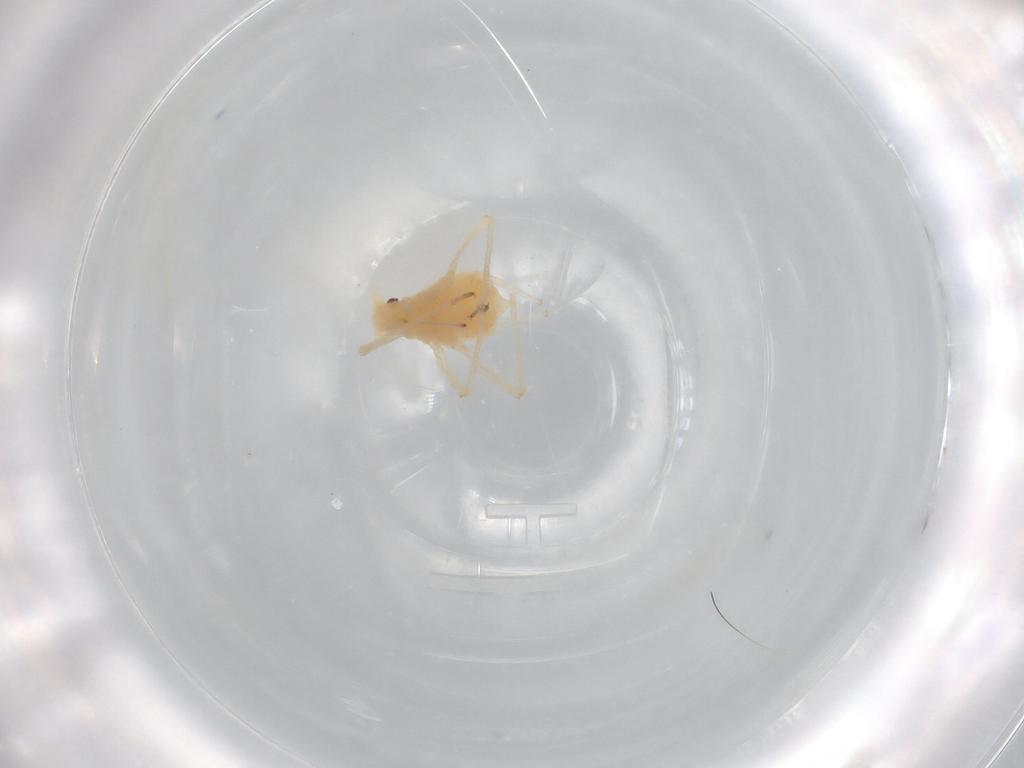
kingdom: Animalia
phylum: Arthropoda
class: Insecta
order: Hemiptera
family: Aphididae
